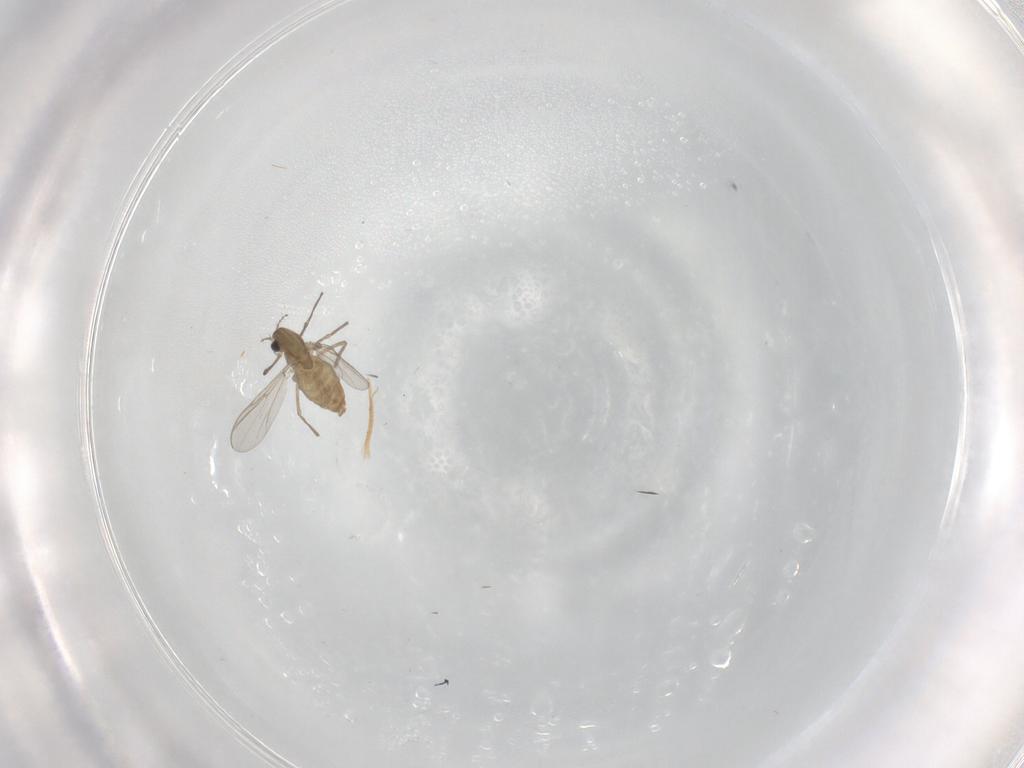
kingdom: Animalia
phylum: Arthropoda
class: Insecta
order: Diptera
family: Chironomidae
